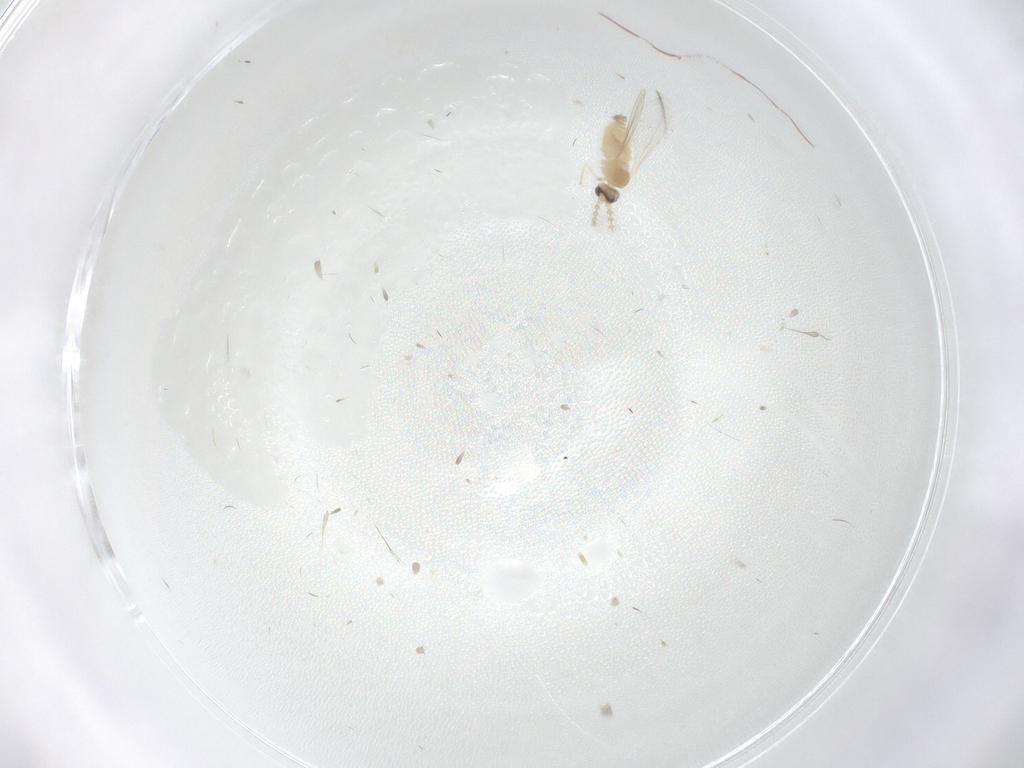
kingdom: Animalia
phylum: Arthropoda
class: Insecta
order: Diptera
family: Cecidomyiidae
